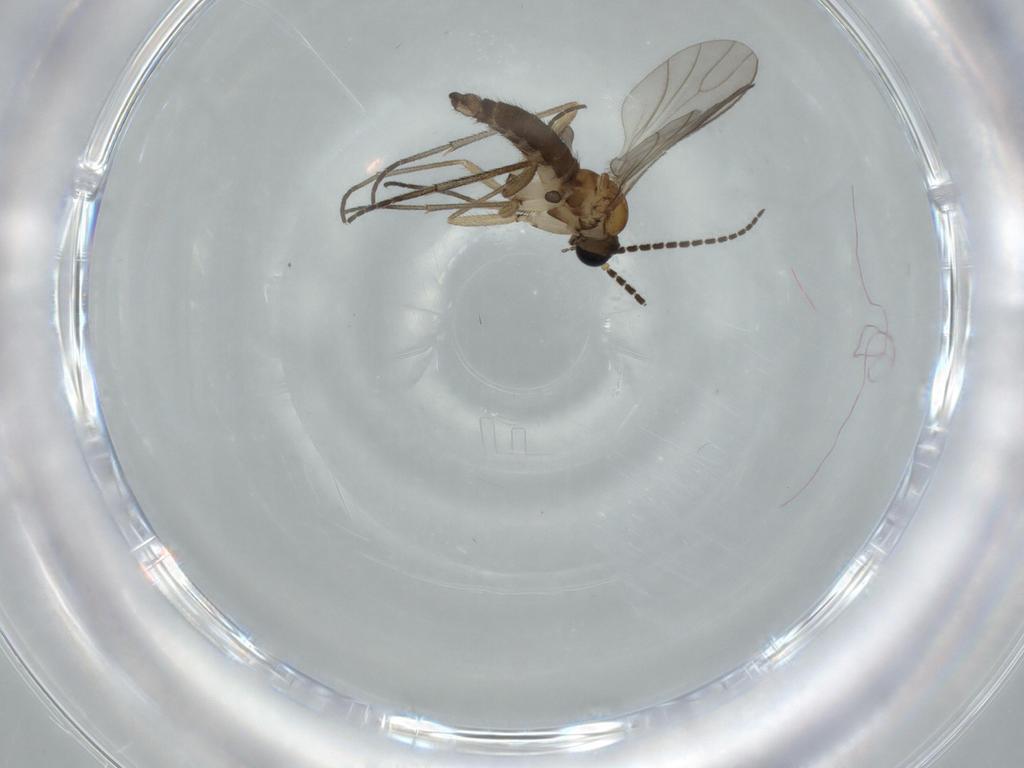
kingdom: Animalia
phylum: Arthropoda
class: Insecta
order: Diptera
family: Sciaridae
